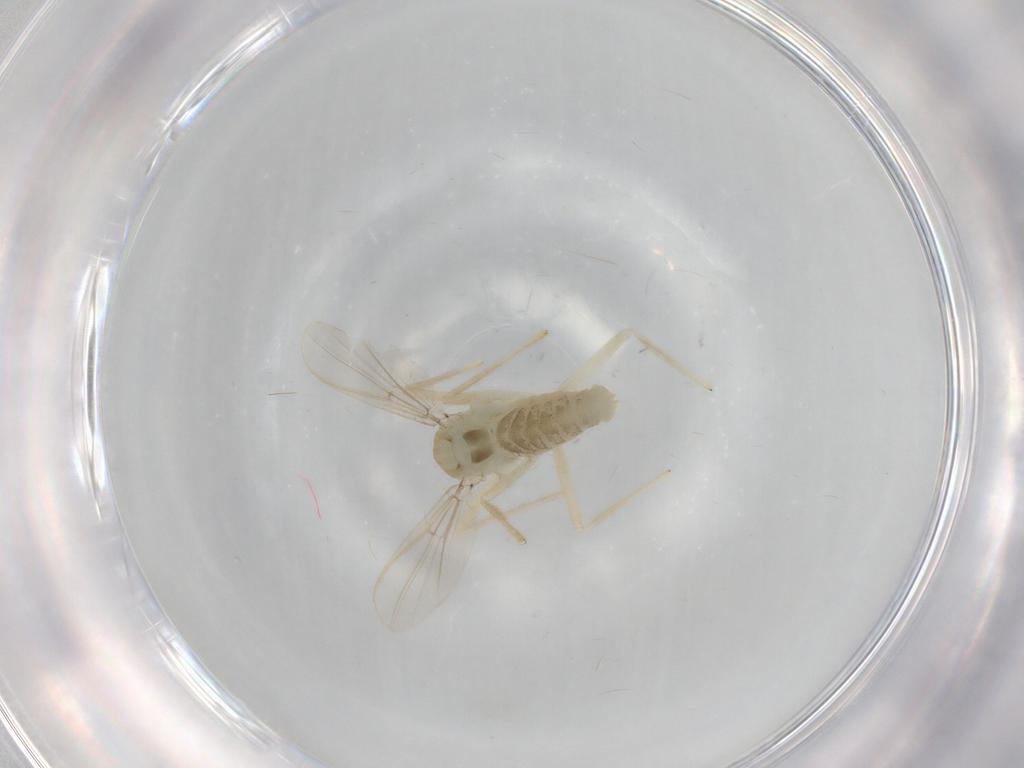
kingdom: Animalia
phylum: Arthropoda
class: Insecta
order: Diptera
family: Chironomidae
